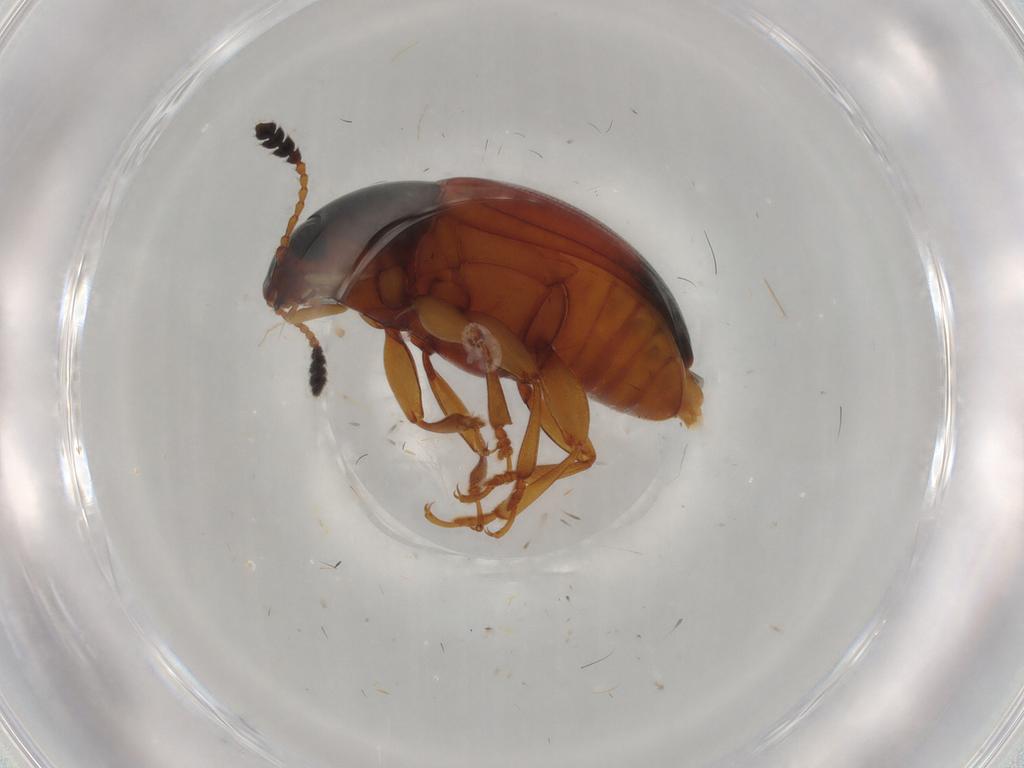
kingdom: Animalia
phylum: Arthropoda
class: Insecta
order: Coleoptera
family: Erotylidae
